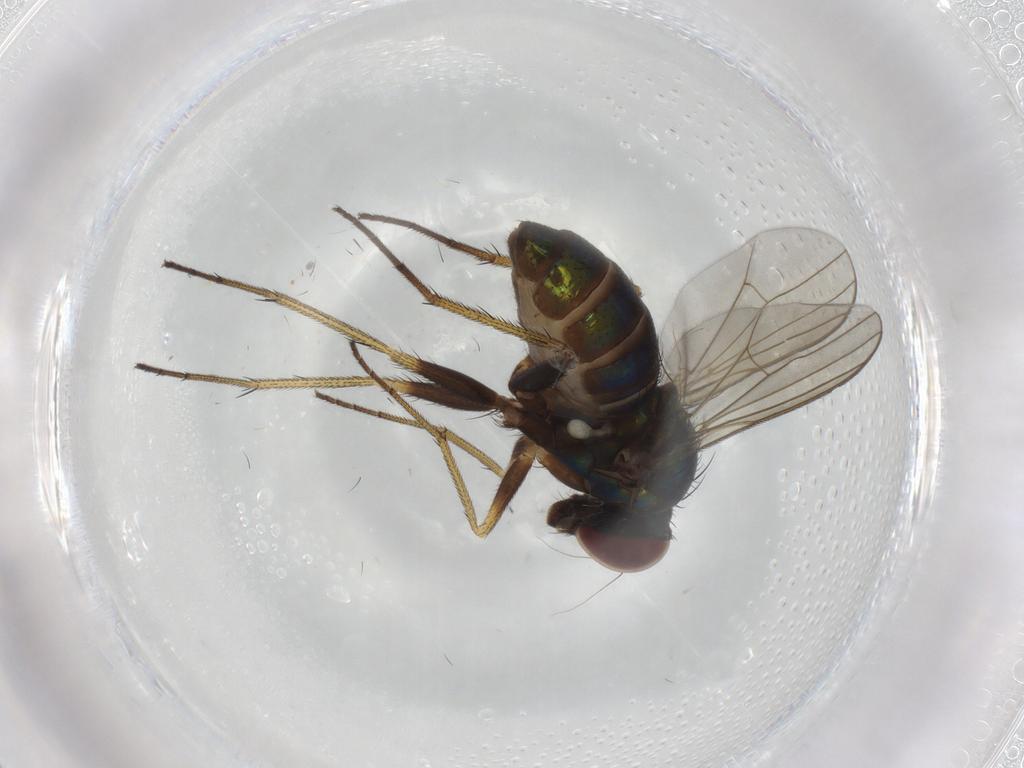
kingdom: Animalia
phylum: Arthropoda
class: Insecta
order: Diptera
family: Dolichopodidae
